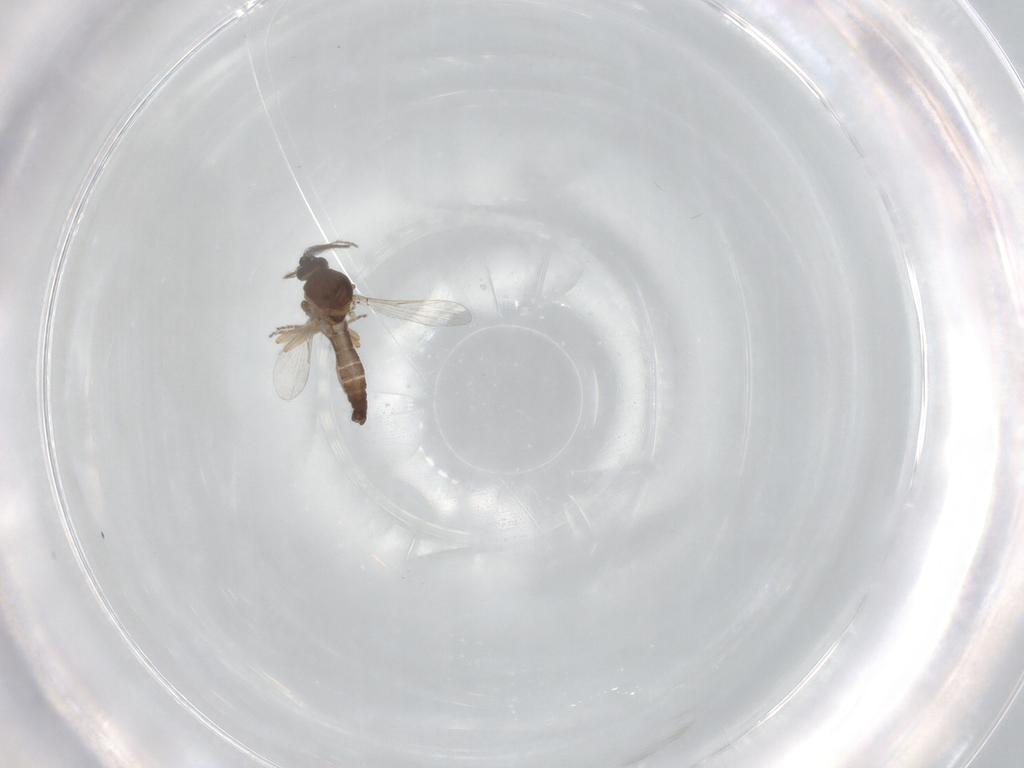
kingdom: Animalia
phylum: Arthropoda
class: Insecta
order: Diptera
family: Ceratopogonidae
